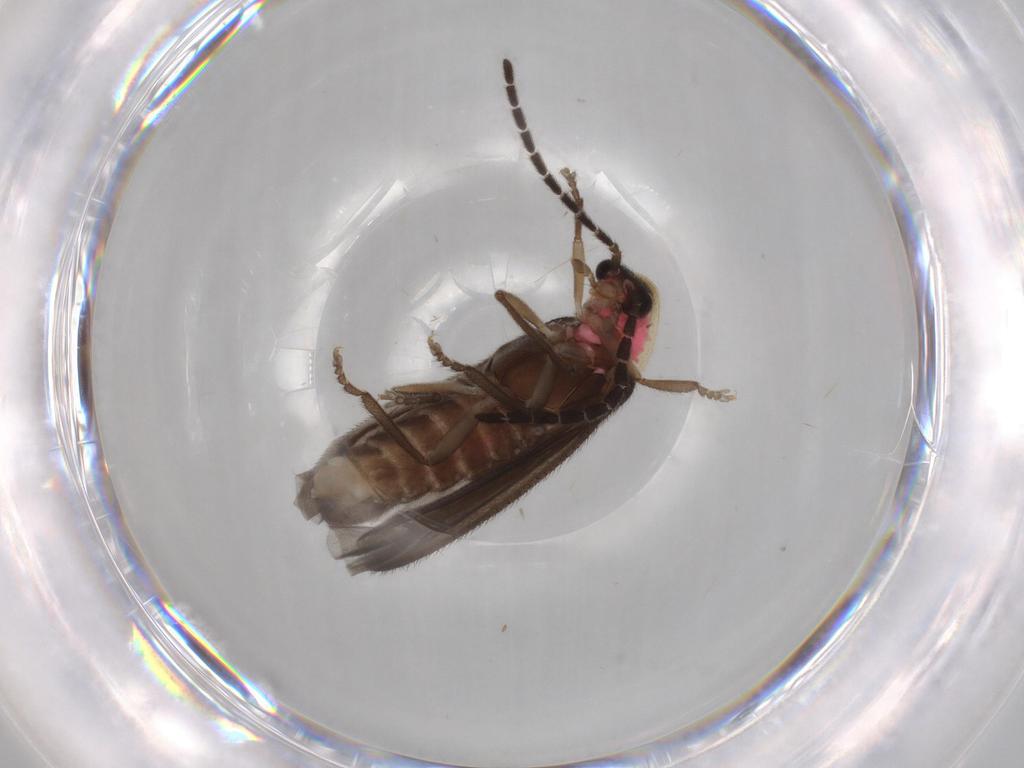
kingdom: Animalia
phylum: Arthropoda
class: Insecta
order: Coleoptera
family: Lampyridae
